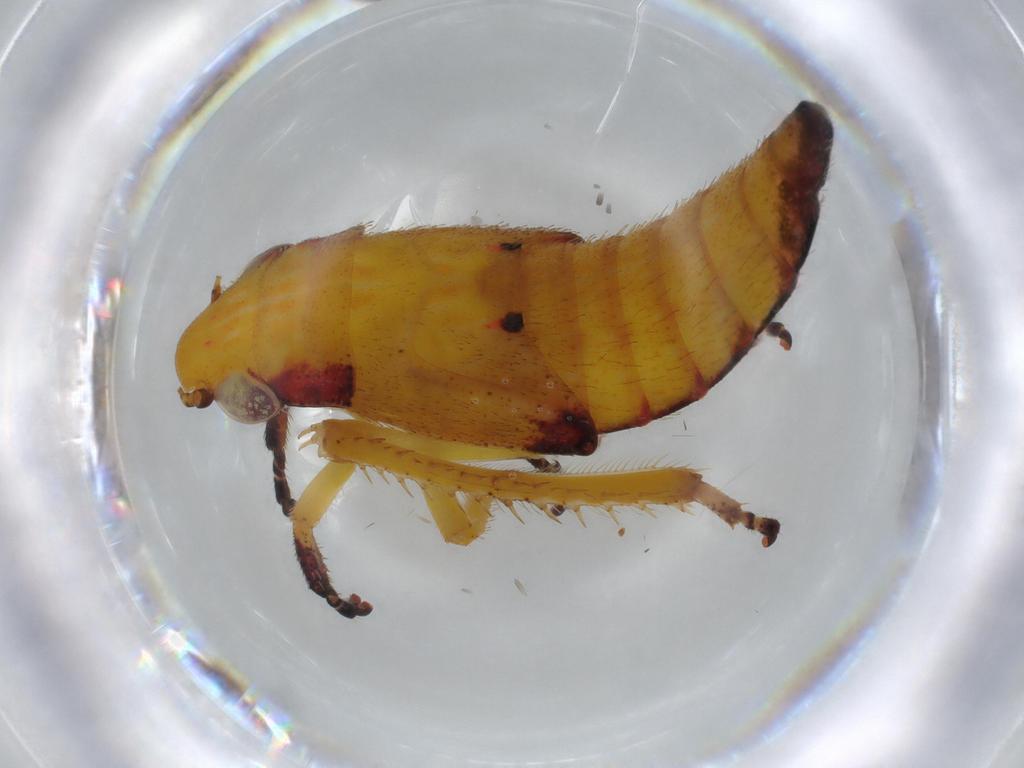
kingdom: Animalia
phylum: Arthropoda
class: Insecta
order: Hemiptera
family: Cicadellidae
